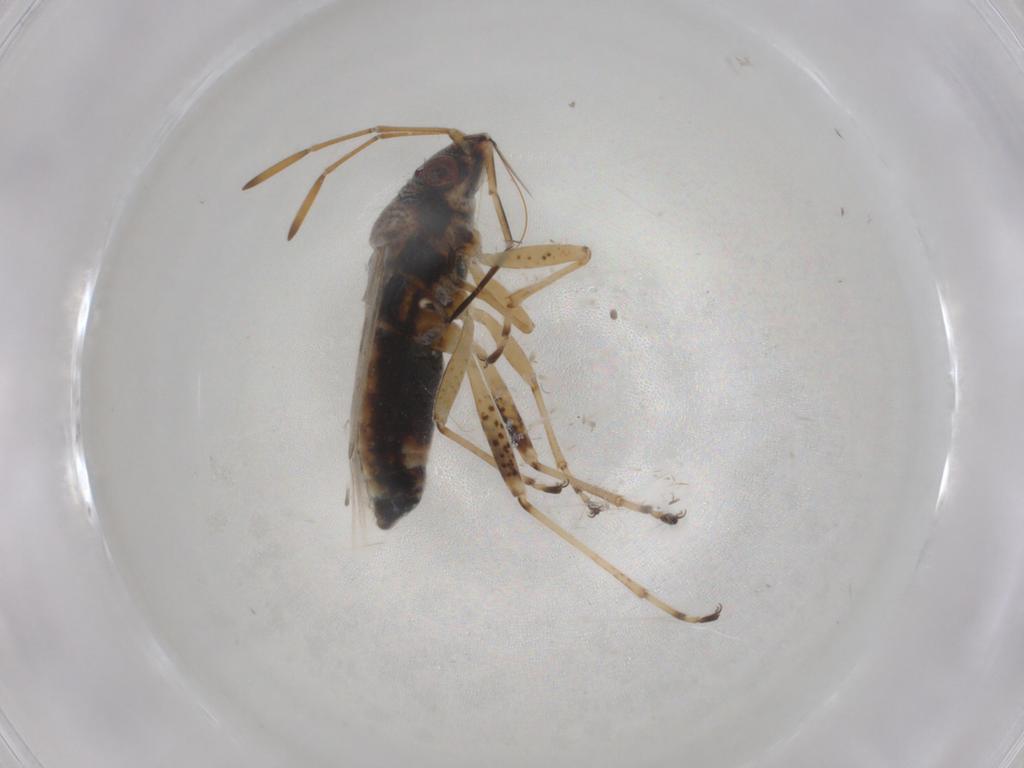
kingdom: Animalia
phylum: Arthropoda
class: Insecta
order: Hemiptera
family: Lygaeidae
